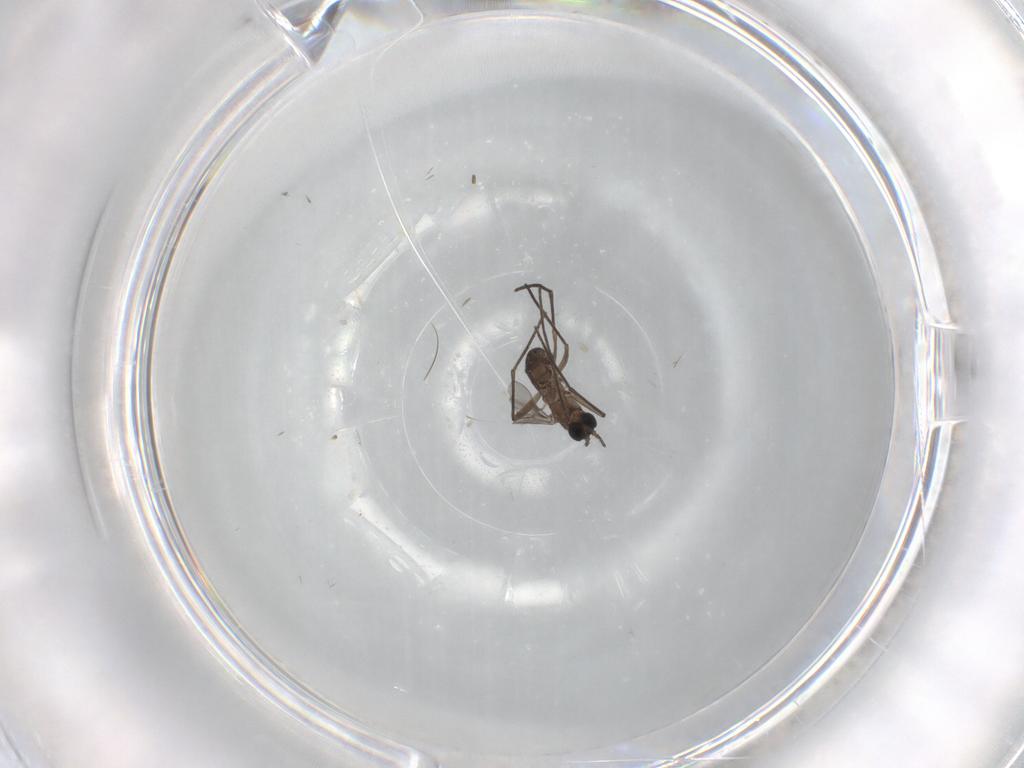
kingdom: Animalia
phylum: Arthropoda
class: Insecta
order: Diptera
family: Sciaridae
